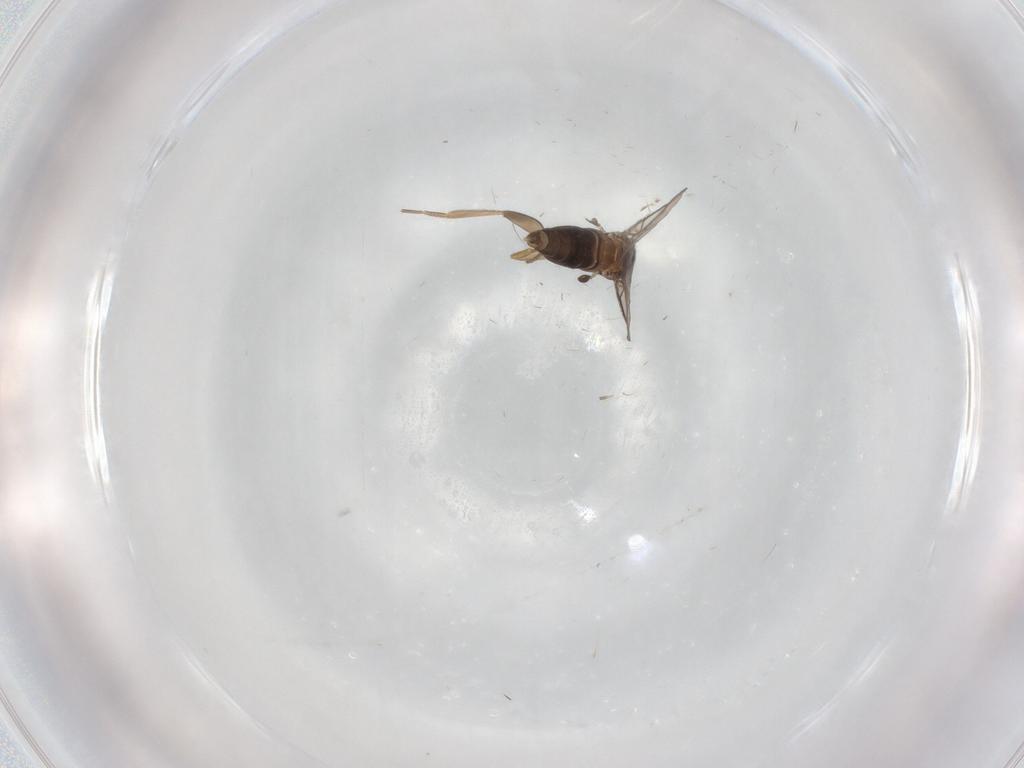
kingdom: Animalia
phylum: Arthropoda
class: Insecta
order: Diptera
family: Phoridae
